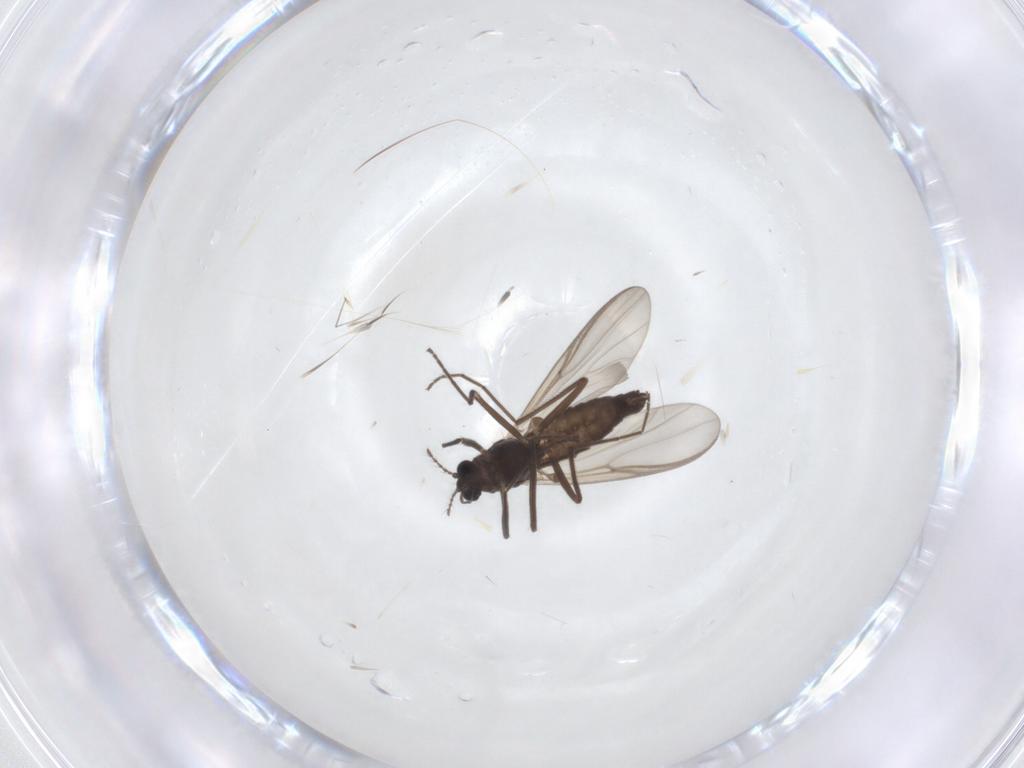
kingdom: Animalia
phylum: Arthropoda
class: Insecta
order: Diptera
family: Chironomidae
